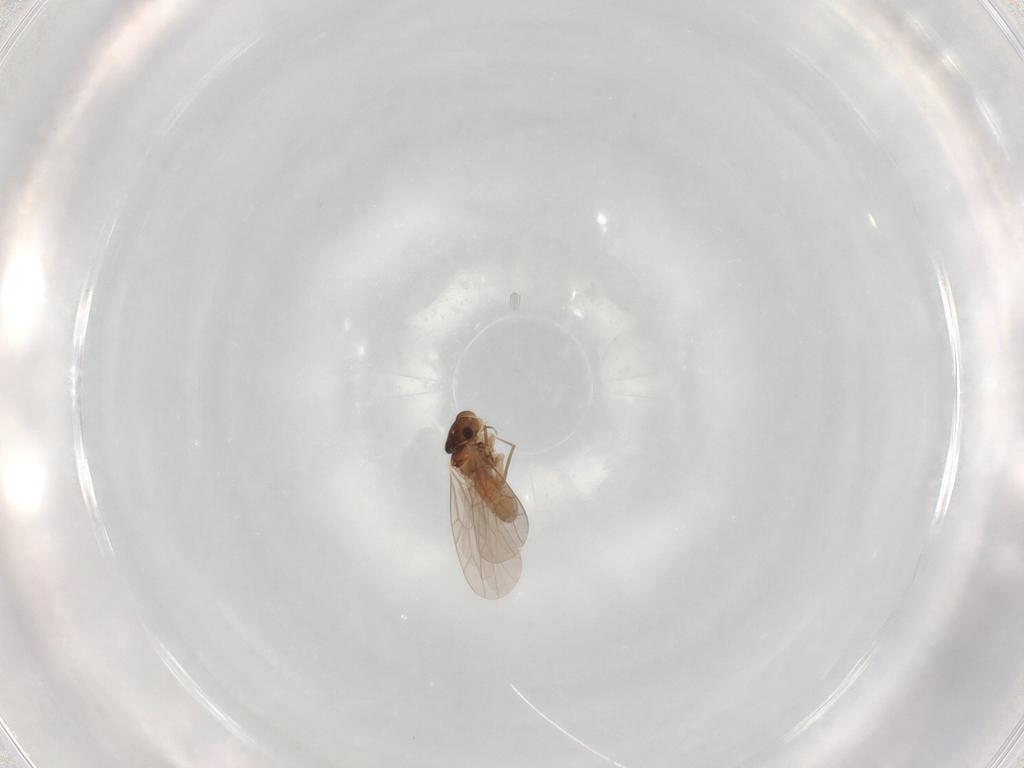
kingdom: Animalia
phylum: Arthropoda
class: Insecta
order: Psocodea
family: Lepidopsocidae
